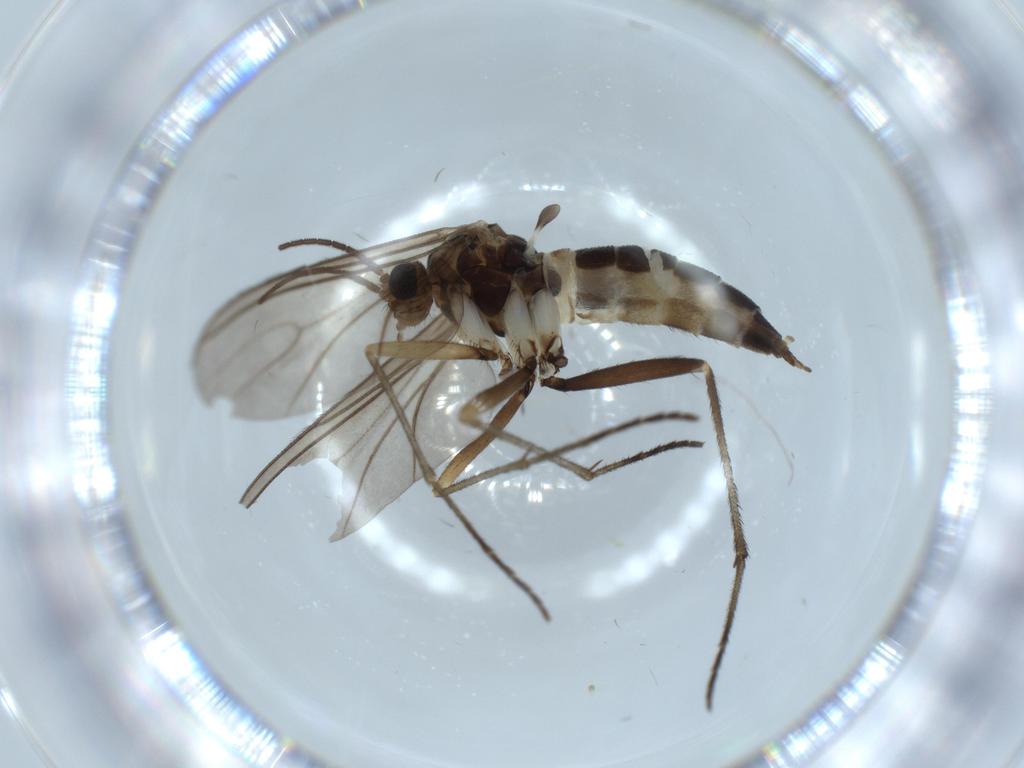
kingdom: Animalia
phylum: Arthropoda
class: Insecta
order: Diptera
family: Sciaridae
